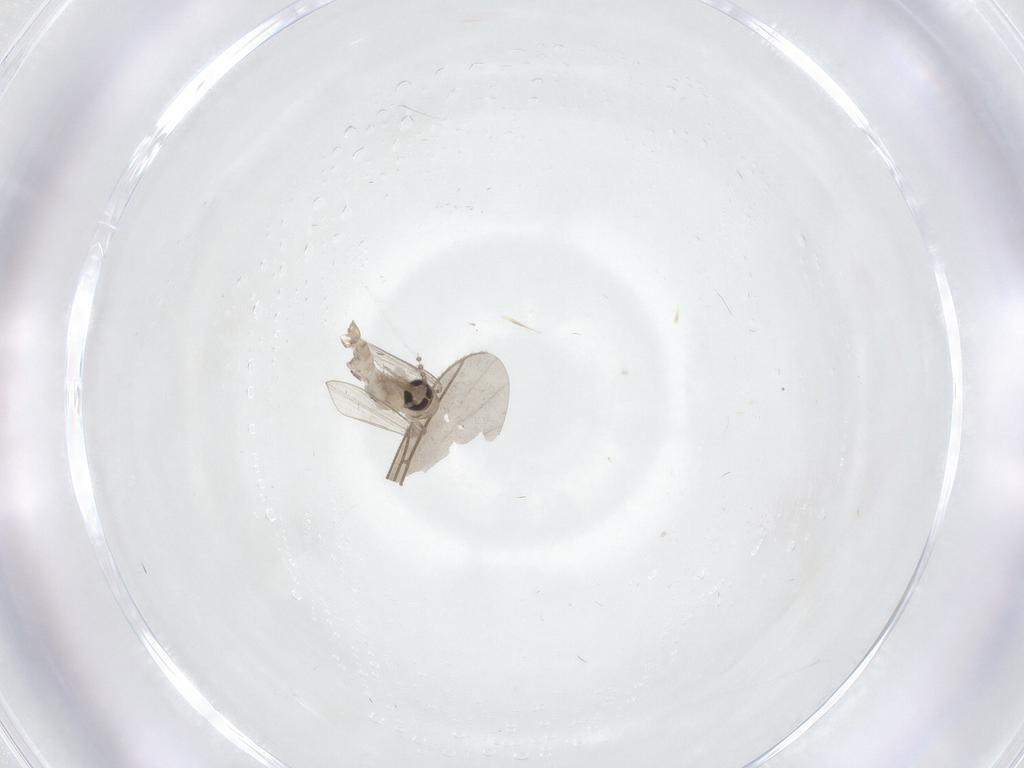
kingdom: Animalia
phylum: Arthropoda
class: Insecta
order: Diptera
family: Psychodidae
